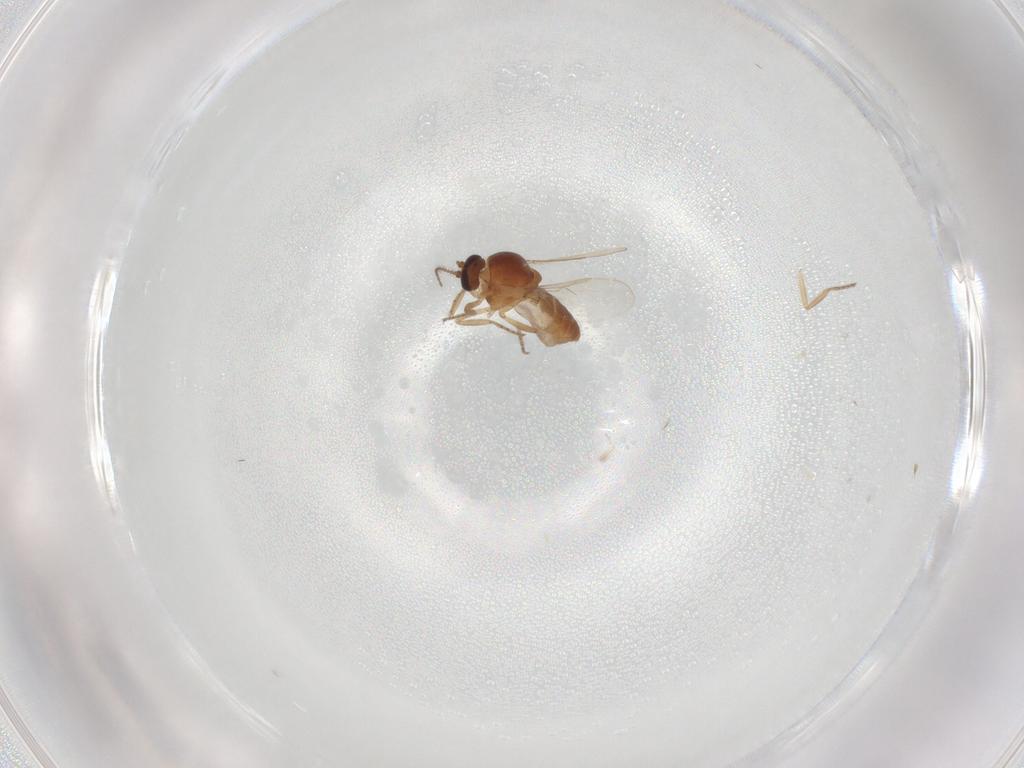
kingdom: Animalia
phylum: Arthropoda
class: Insecta
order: Diptera
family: Ceratopogonidae
